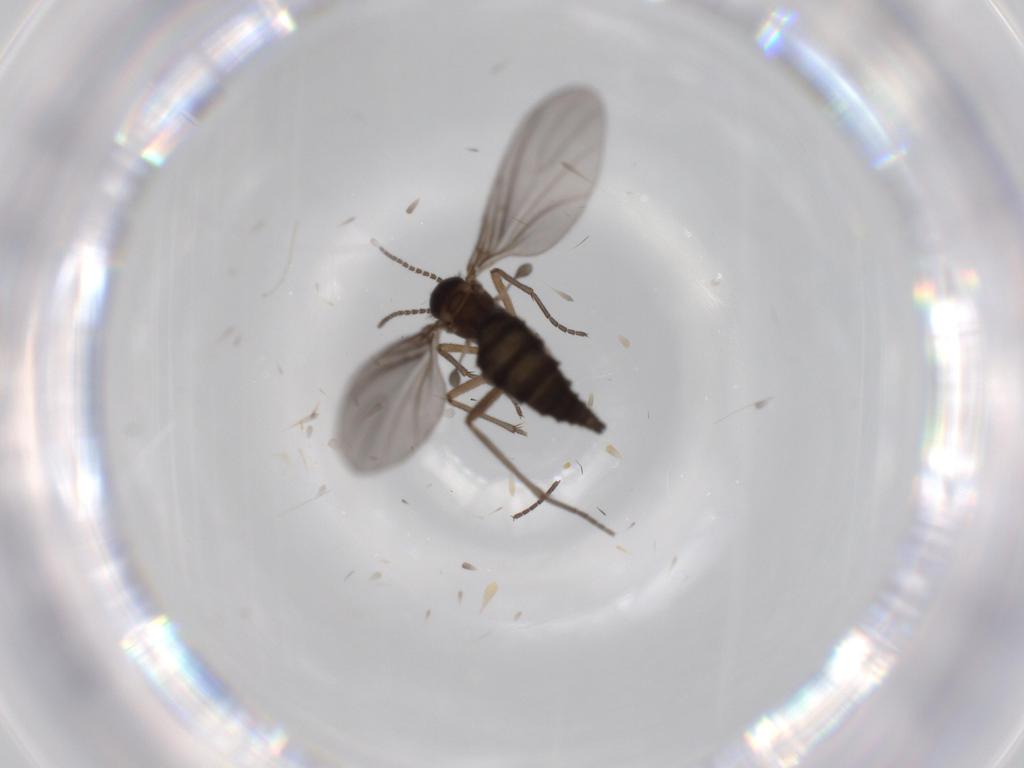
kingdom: Animalia
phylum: Arthropoda
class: Insecta
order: Diptera
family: Sciaridae
